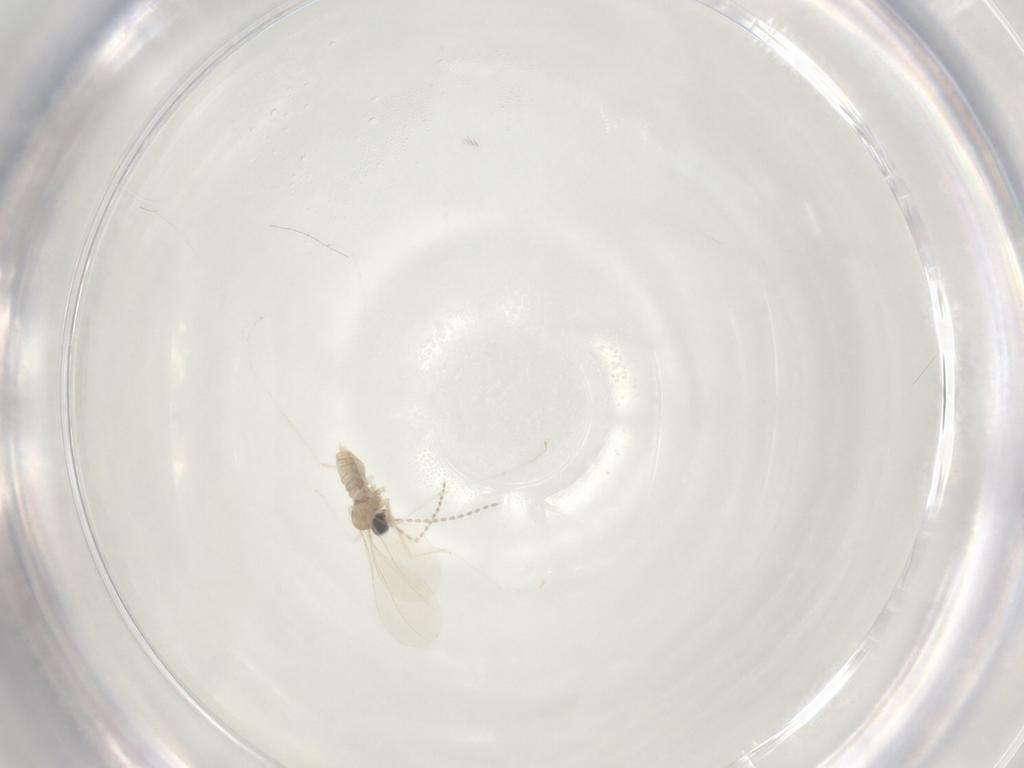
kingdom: Animalia
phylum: Arthropoda
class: Insecta
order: Diptera
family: Cecidomyiidae
